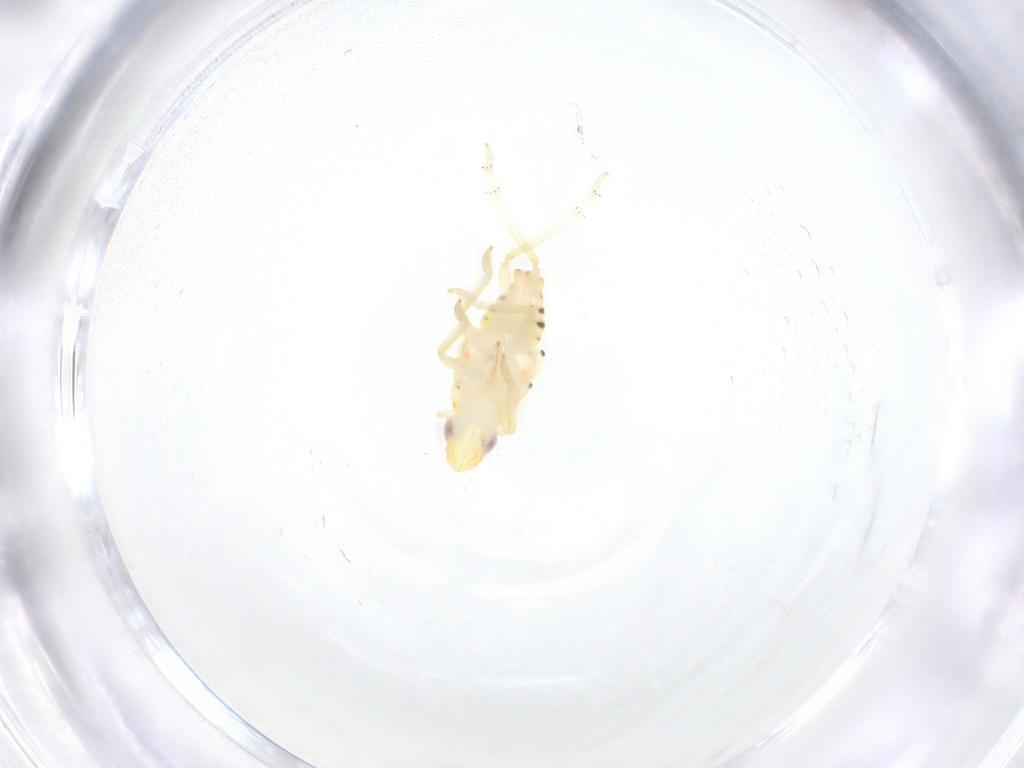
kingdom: Animalia
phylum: Arthropoda
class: Insecta
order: Hemiptera
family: Tropiduchidae
